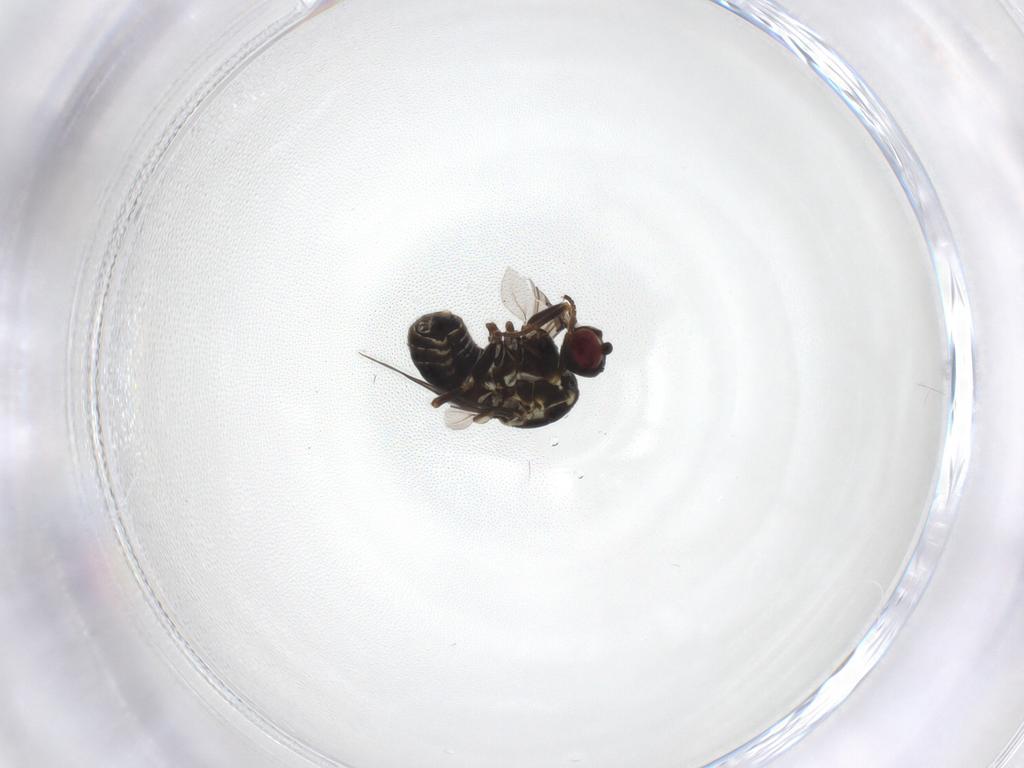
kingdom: Animalia
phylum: Arthropoda
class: Insecta
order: Diptera
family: Bombyliidae
